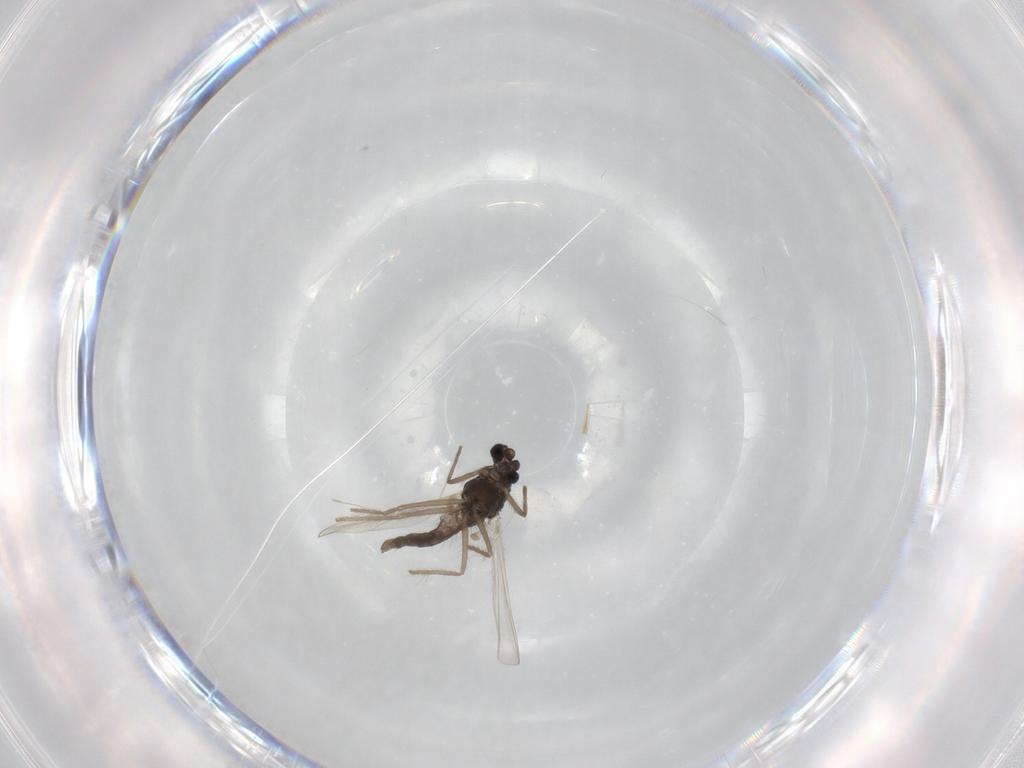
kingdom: Animalia
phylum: Arthropoda
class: Insecta
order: Diptera
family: Chironomidae
